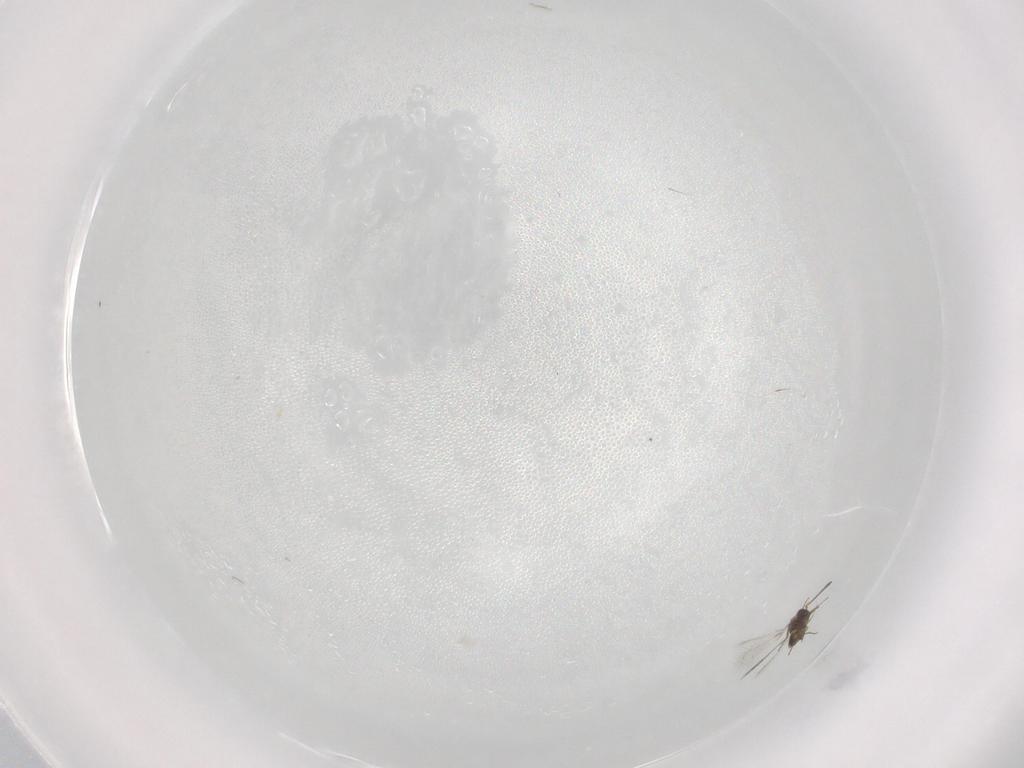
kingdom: Animalia
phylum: Arthropoda
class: Insecta
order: Hymenoptera
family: Mymaridae
